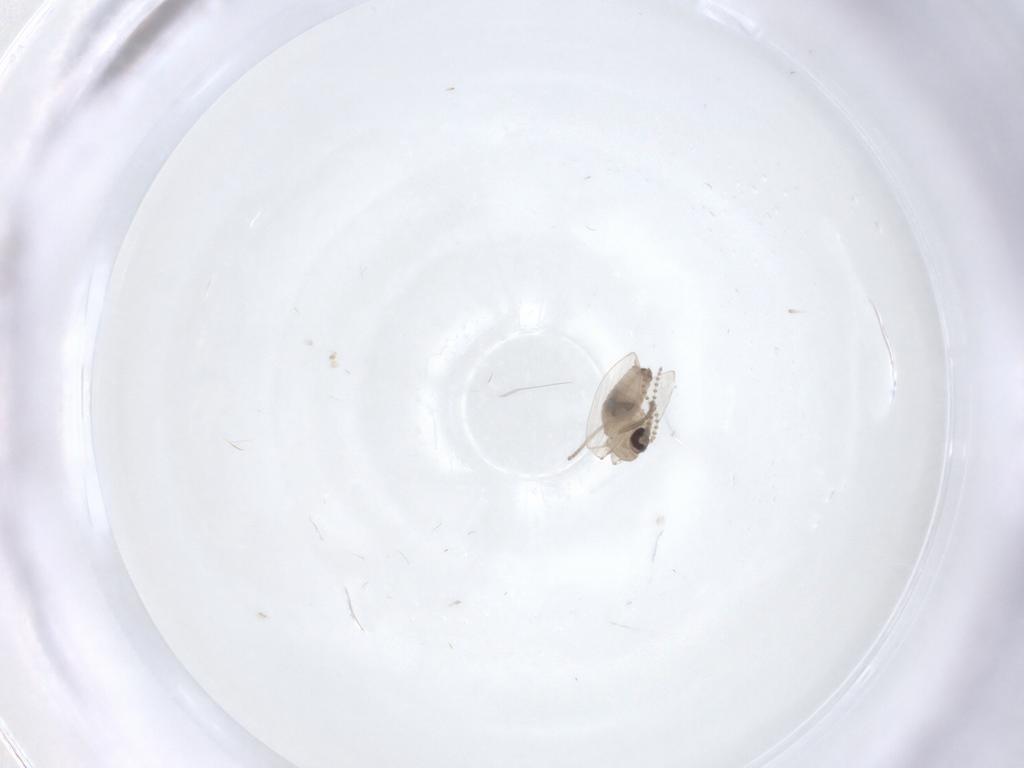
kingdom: Animalia
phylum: Arthropoda
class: Insecta
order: Diptera
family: Psychodidae
